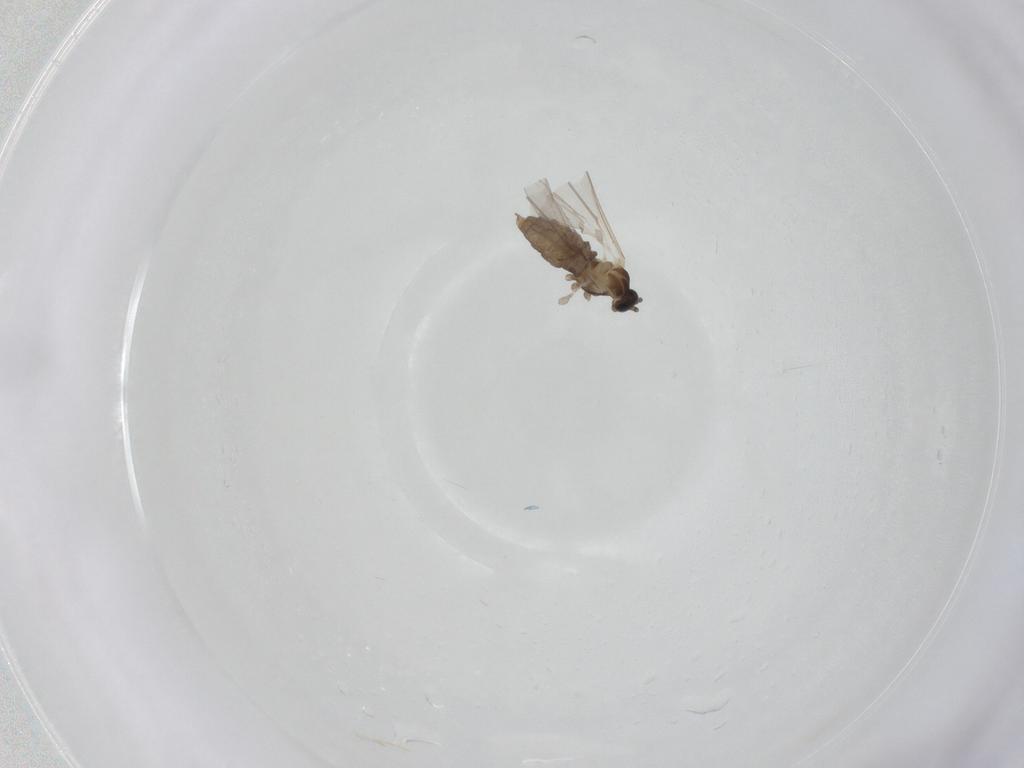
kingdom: Animalia
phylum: Arthropoda
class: Insecta
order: Diptera
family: Cecidomyiidae
